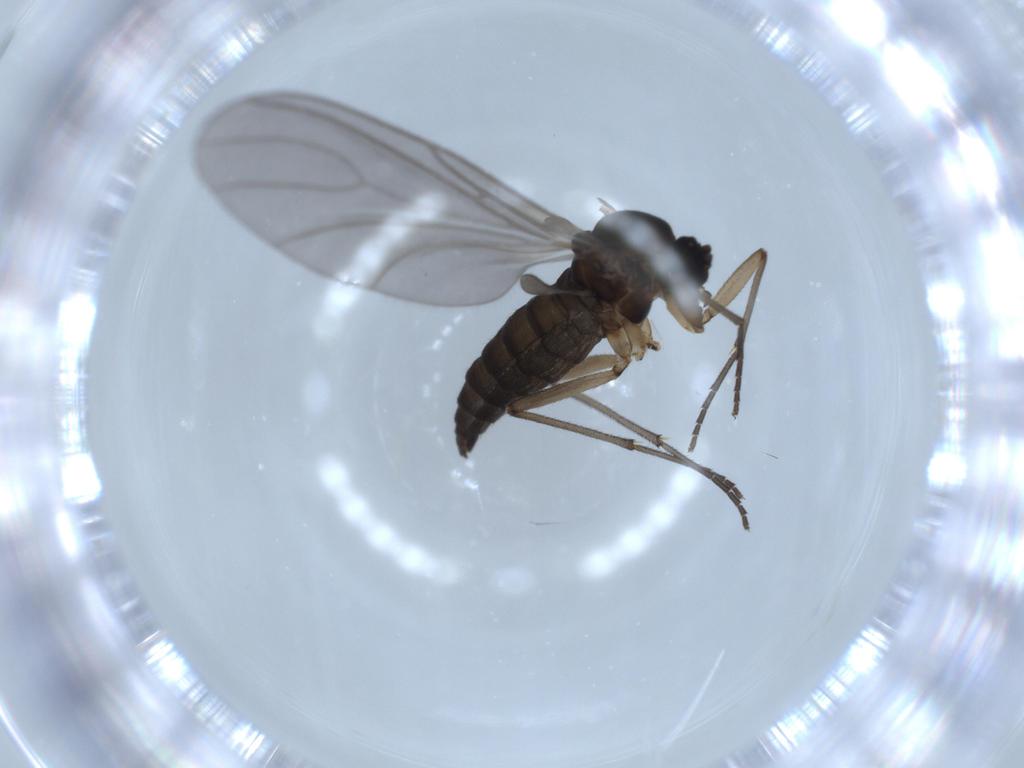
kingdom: Animalia
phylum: Arthropoda
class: Insecta
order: Diptera
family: Sciaridae
